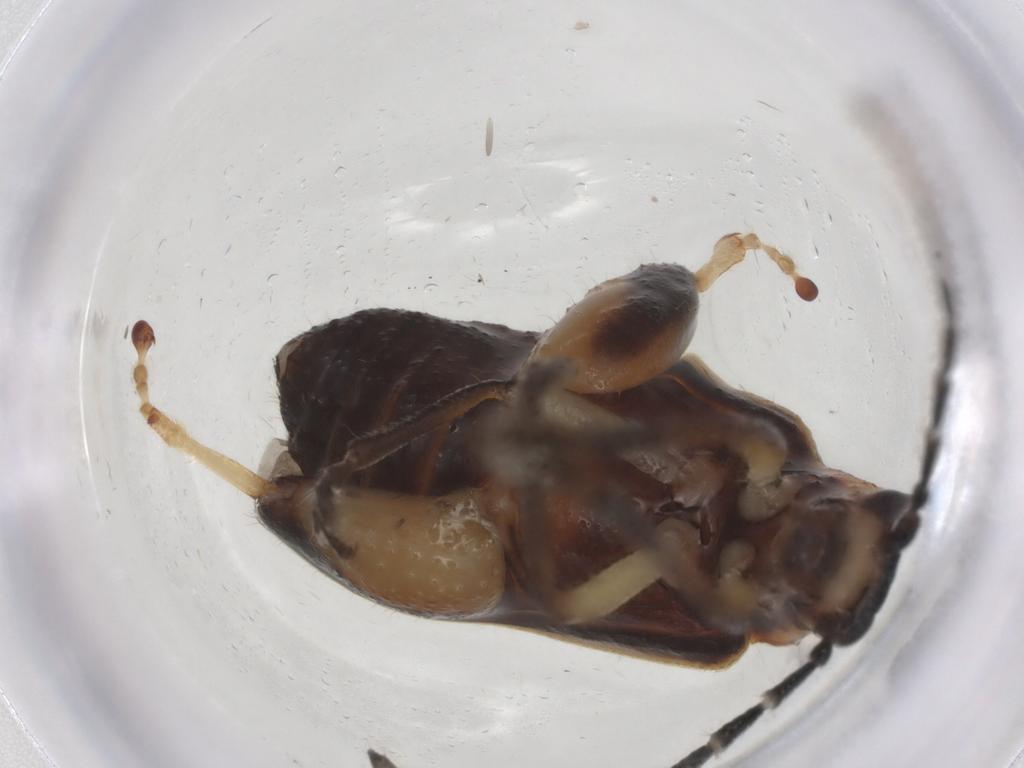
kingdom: Animalia
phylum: Arthropoda
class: Insecta
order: Coleoptera
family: Chrysomelidae
